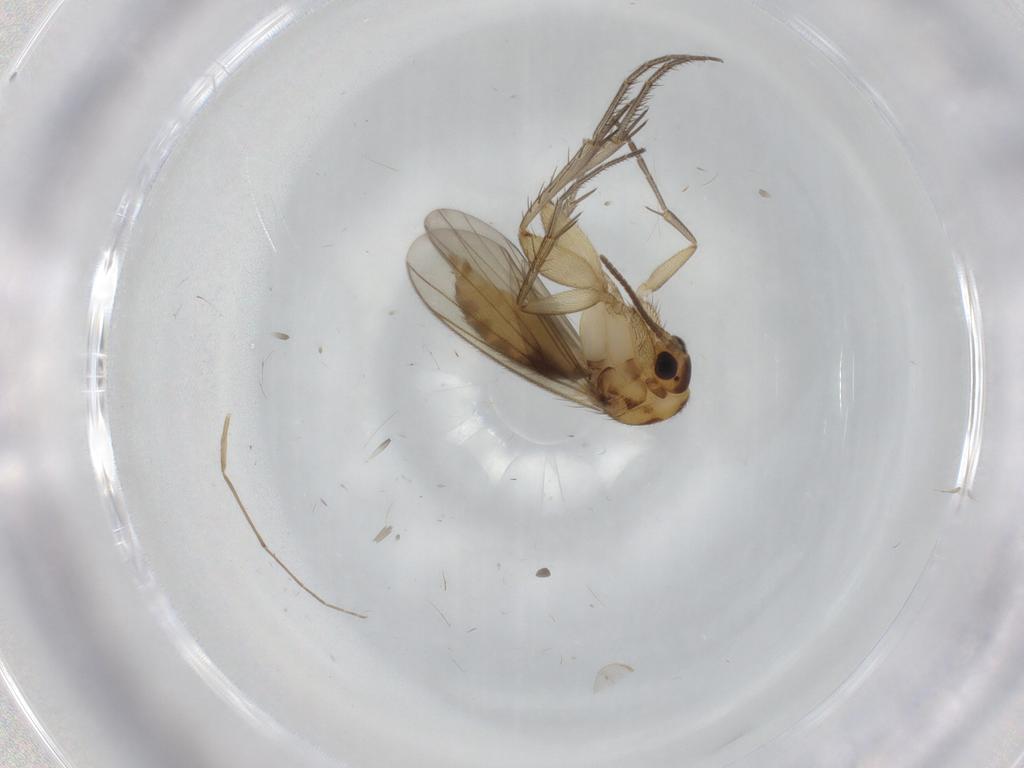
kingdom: Animalia
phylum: Arthropoda
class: Insecta
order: Diptera
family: Mycetophilidae
